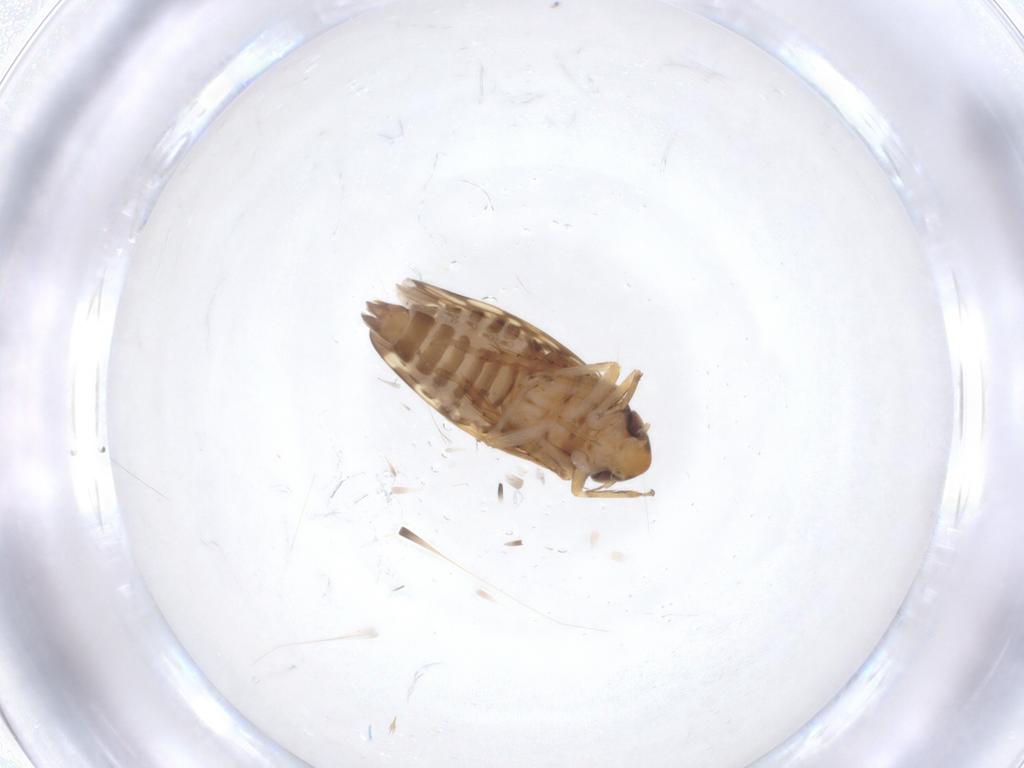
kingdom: Animalia
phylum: Arthropoda
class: Insecta
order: Hemiptera
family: Cicadellidae
